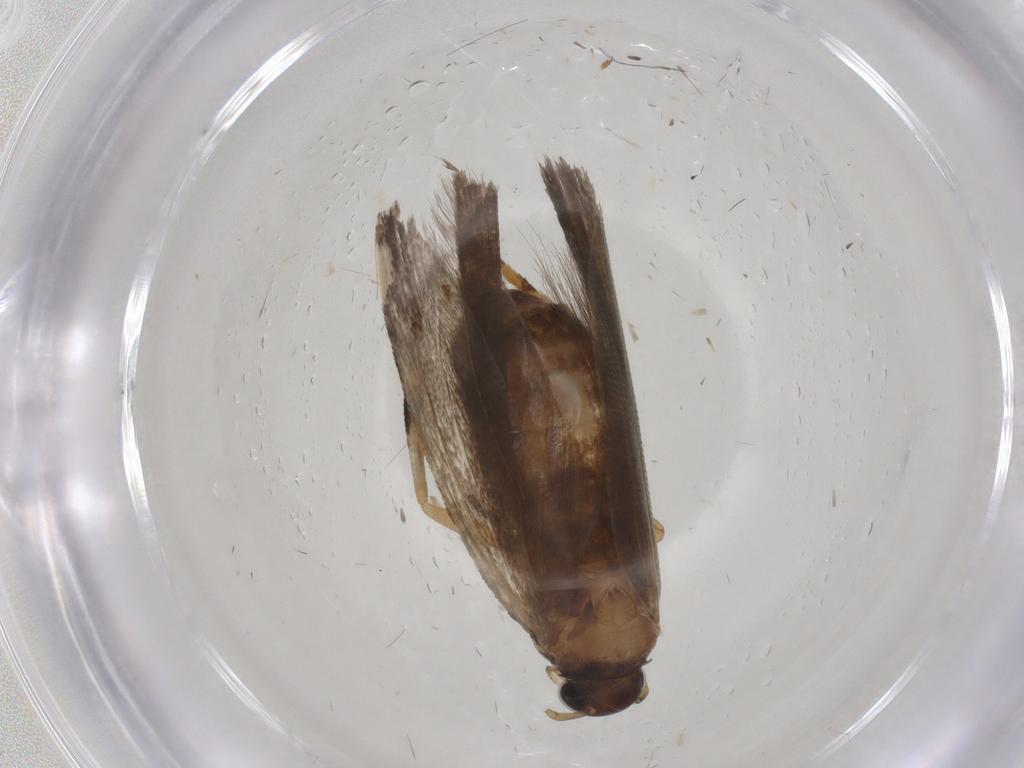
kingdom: Animalia
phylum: Arthropoda
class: Insecta
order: Lepidoptera
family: Gelechiidae
